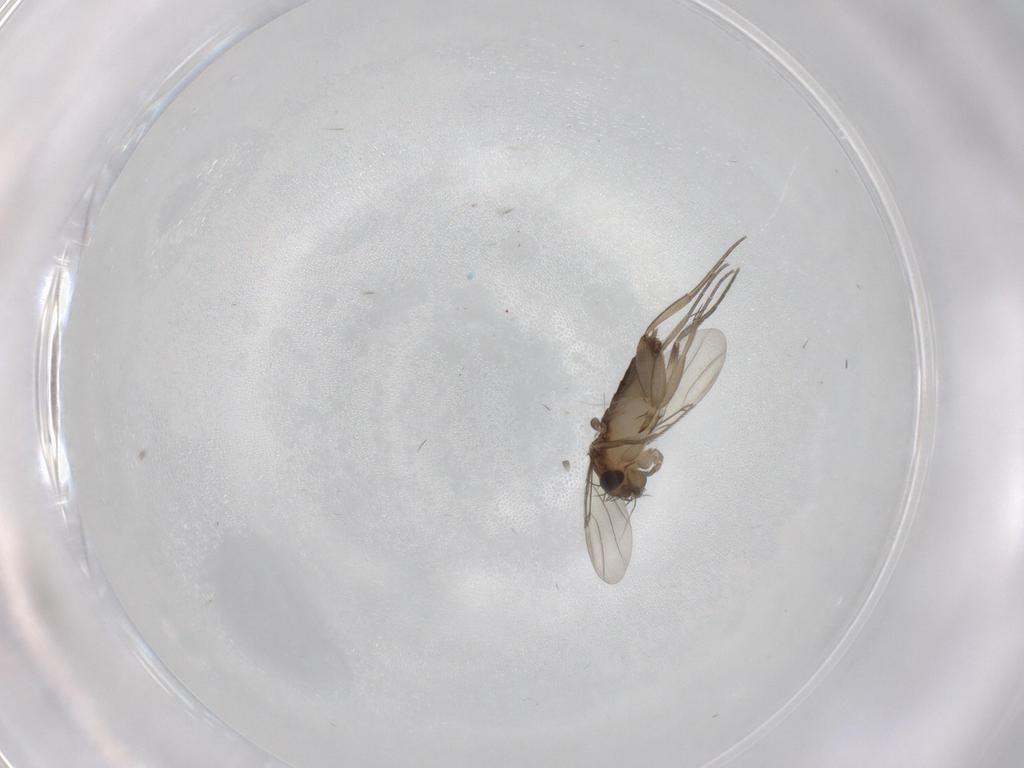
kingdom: Animalia
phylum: Arthropoda
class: Insecta
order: Diptera
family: Phoridae
